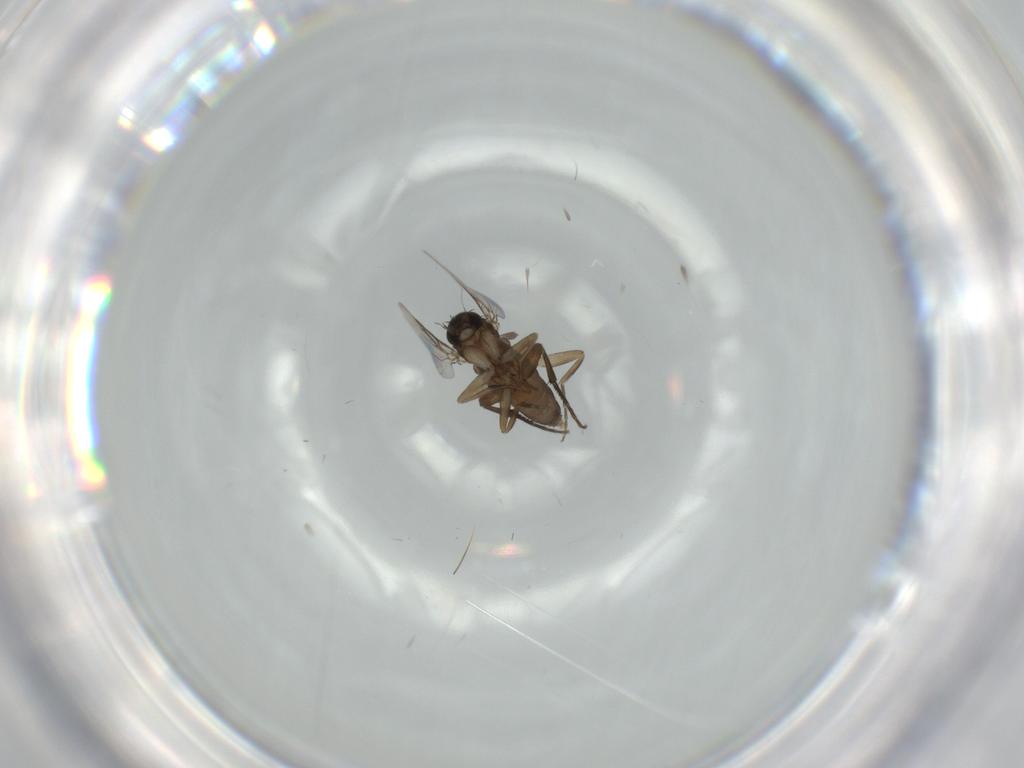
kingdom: Animalia
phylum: Arthropoda
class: Insecta
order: Diptera
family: Phoridae
